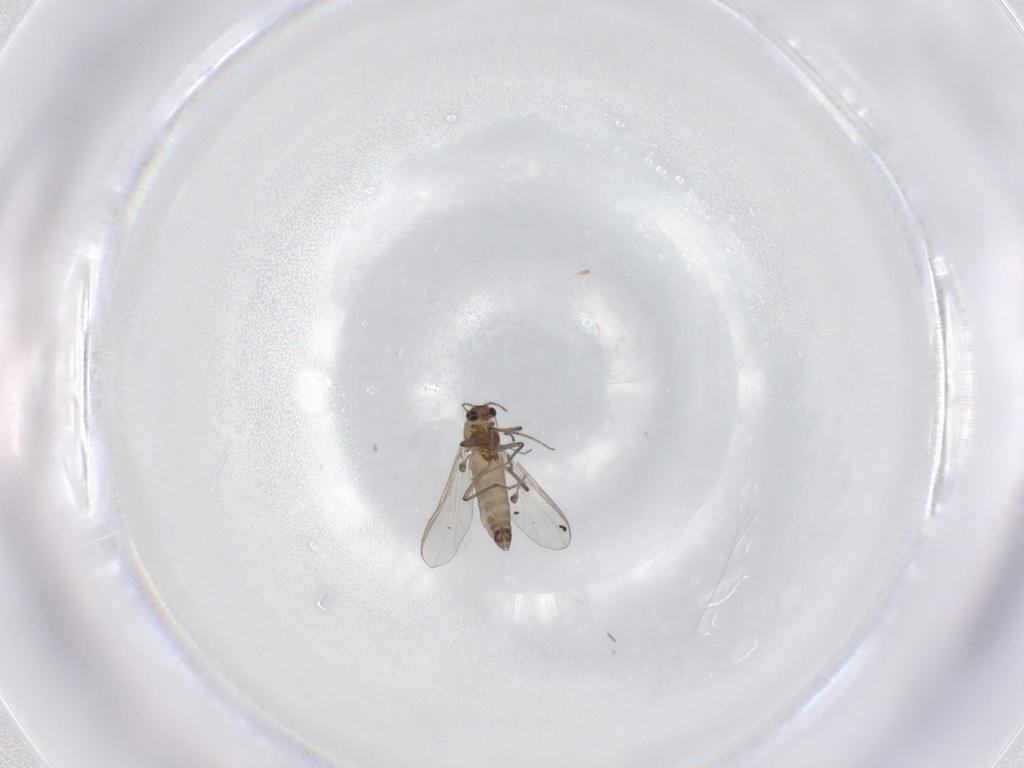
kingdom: Animalia
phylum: Arthropoda
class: Insecta
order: Diptera
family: Chironomidae
